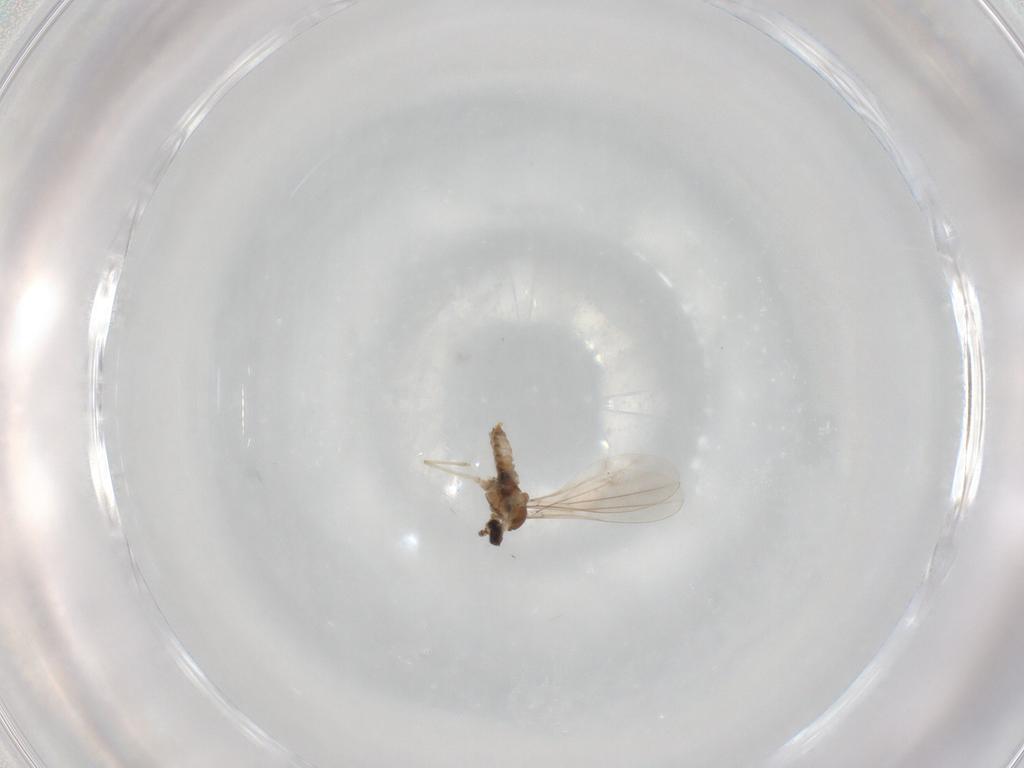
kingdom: Animalia
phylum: Arthropoda
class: Insecta
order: Diptera
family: Cecidomyiidae
